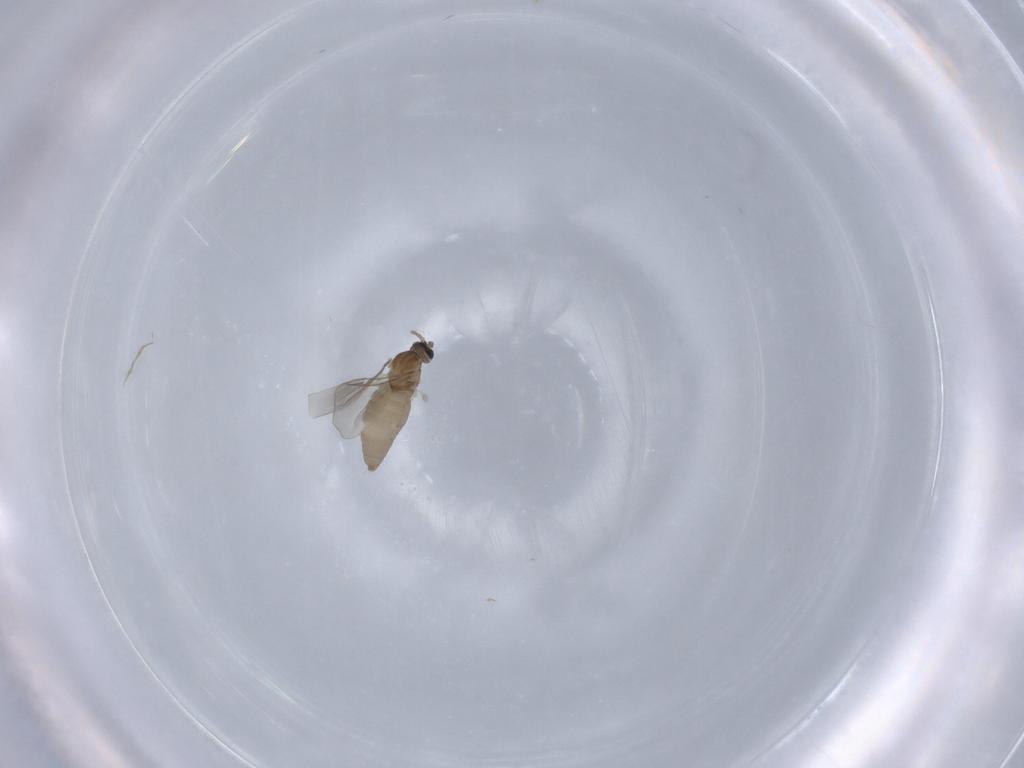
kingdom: Animalia
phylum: Arthropoda
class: Insecta
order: Diptera
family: Cecidomyiidae
